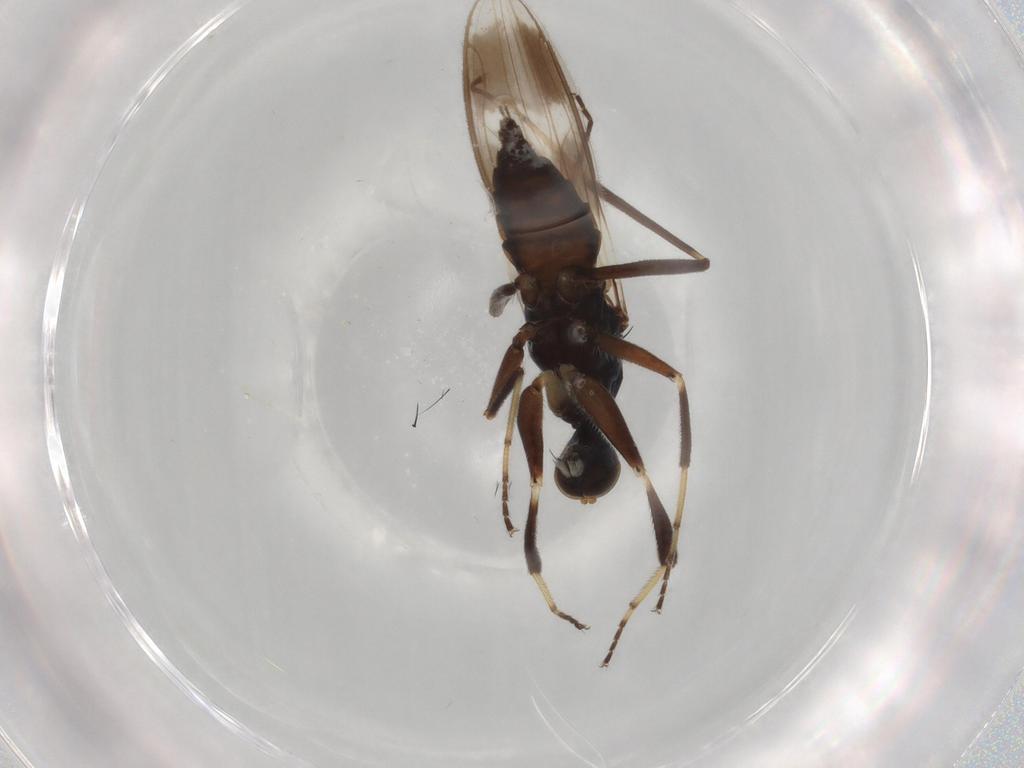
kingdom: Animalia
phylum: Arthropoda
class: Insecta
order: Diptera
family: Hybotidae
